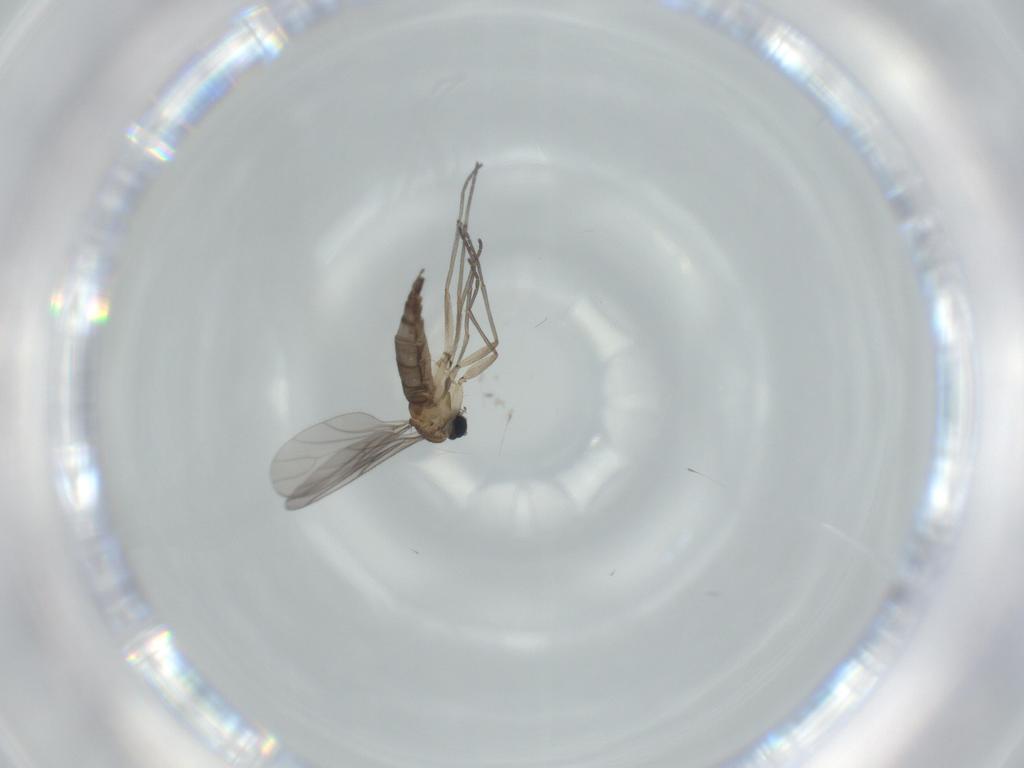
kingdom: Animalia
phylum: Arthropoda
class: Insecta
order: Diptera
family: Sciaridae
